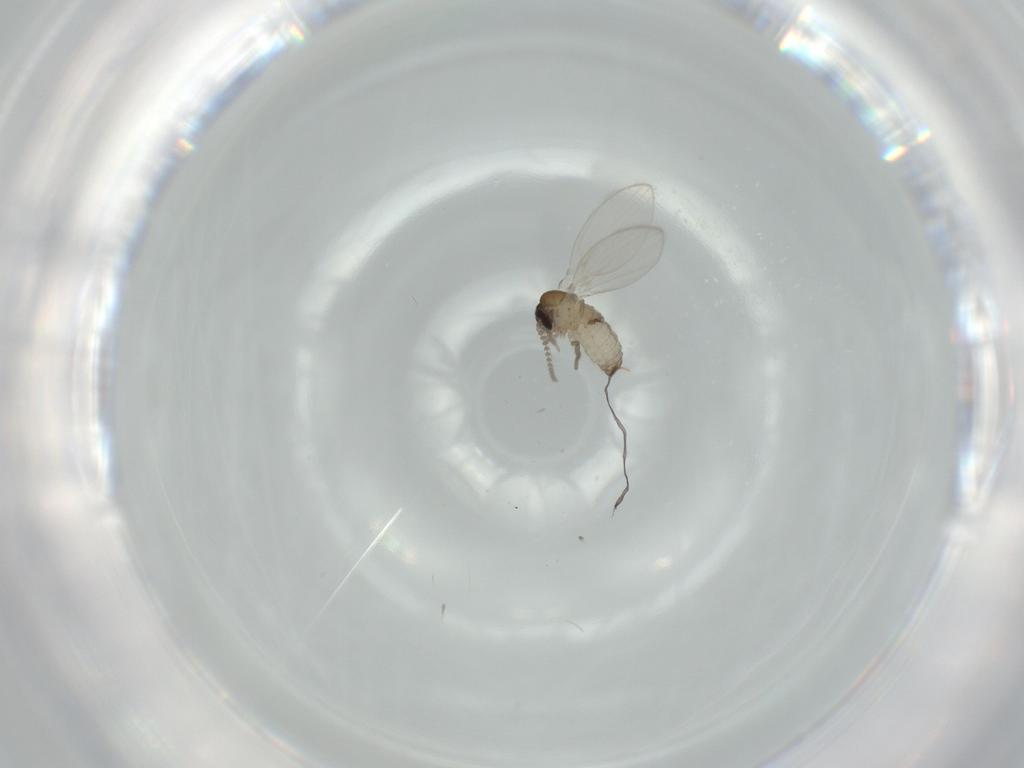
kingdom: Animalia
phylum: Arthropoda
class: Insecta
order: Diptera
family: Psychodidae
